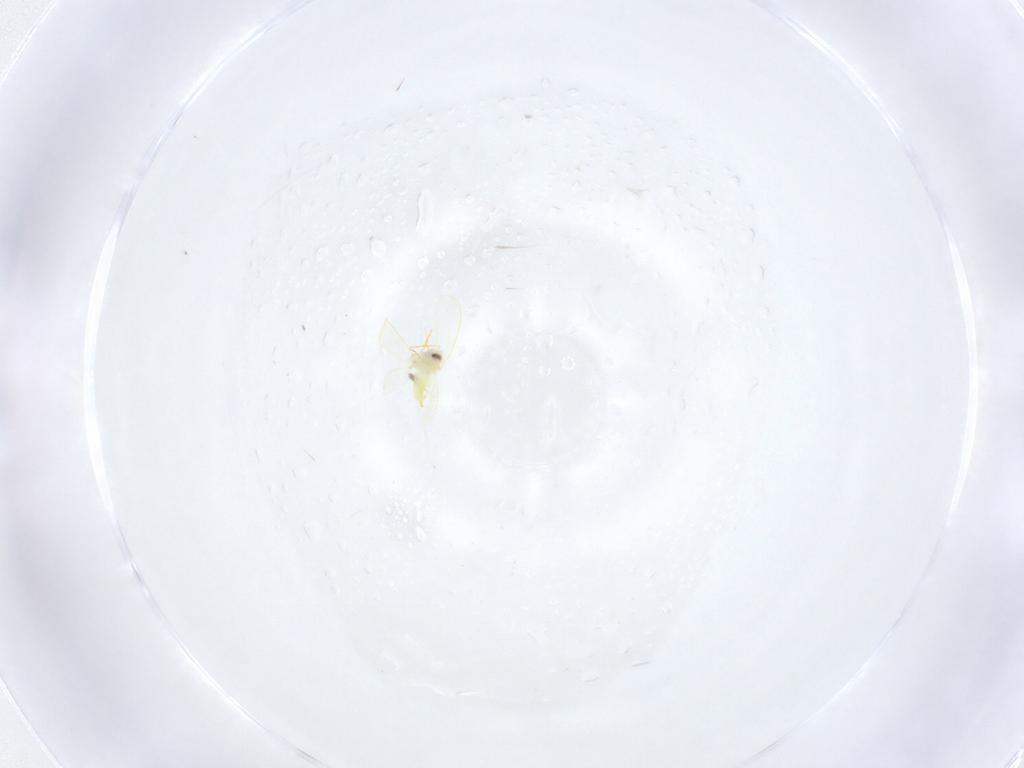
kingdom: Animalia
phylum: Arthropoda
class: Insecta
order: Hemiptera
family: Aleyrodidae
